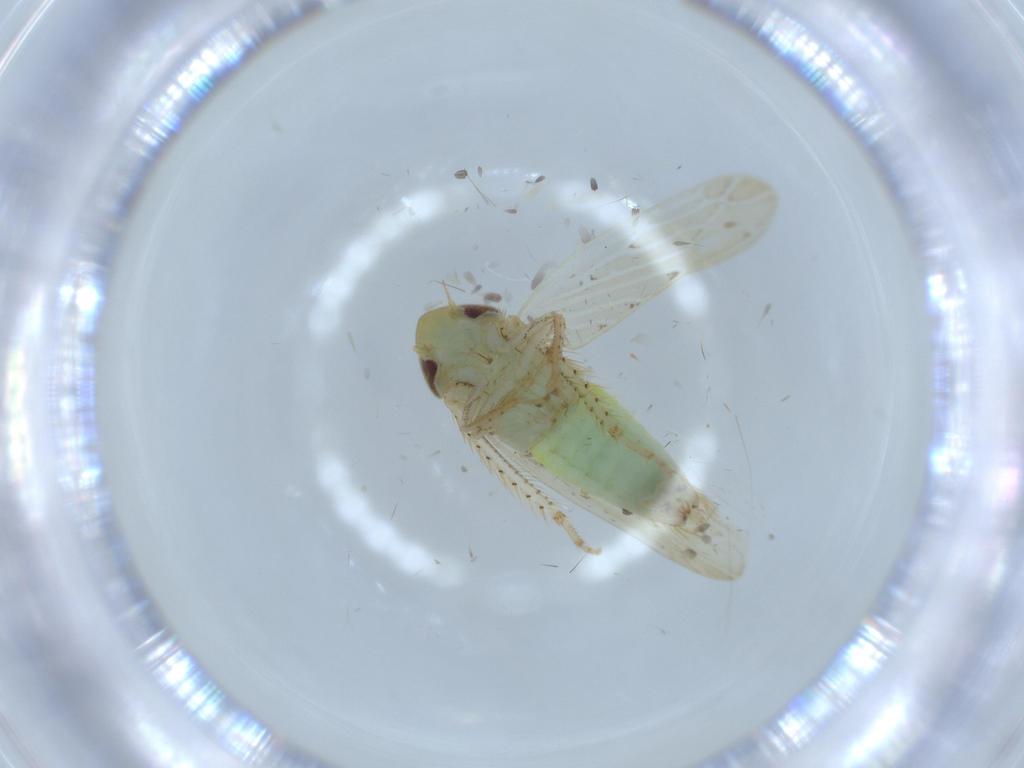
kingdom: Animalia
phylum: Arthropoda
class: Insecta
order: Hemiptera
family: Cicadellidae
